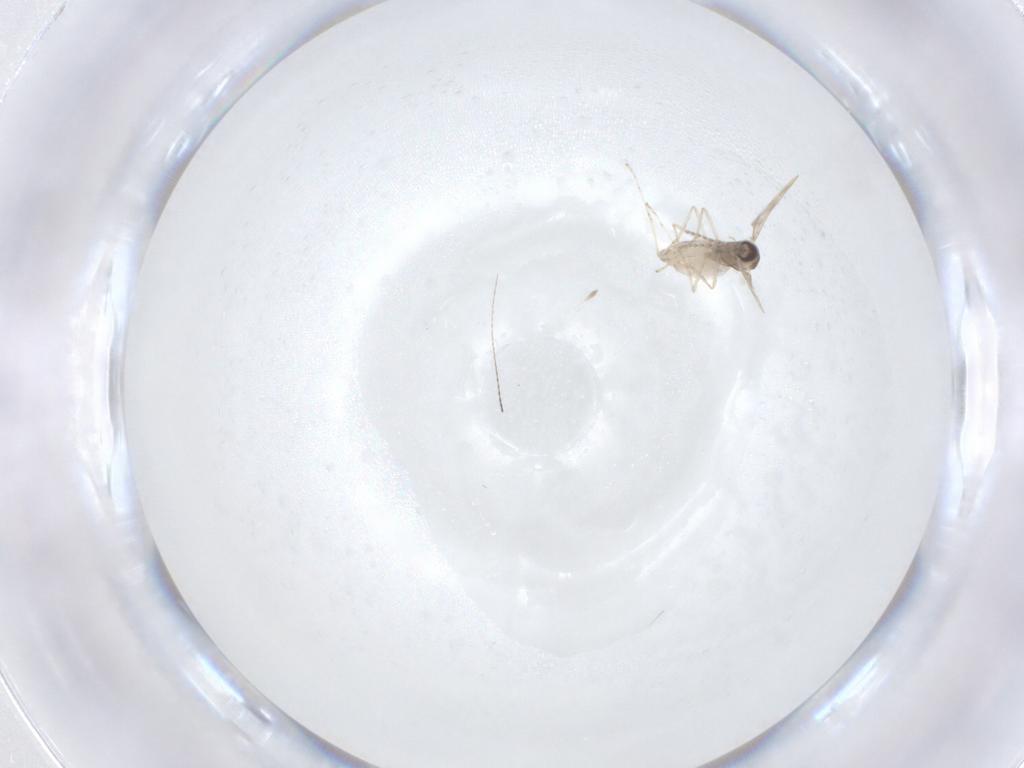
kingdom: Animalia
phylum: Arthropoda
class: Insecta
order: Diptera
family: Cecidomyiidae
